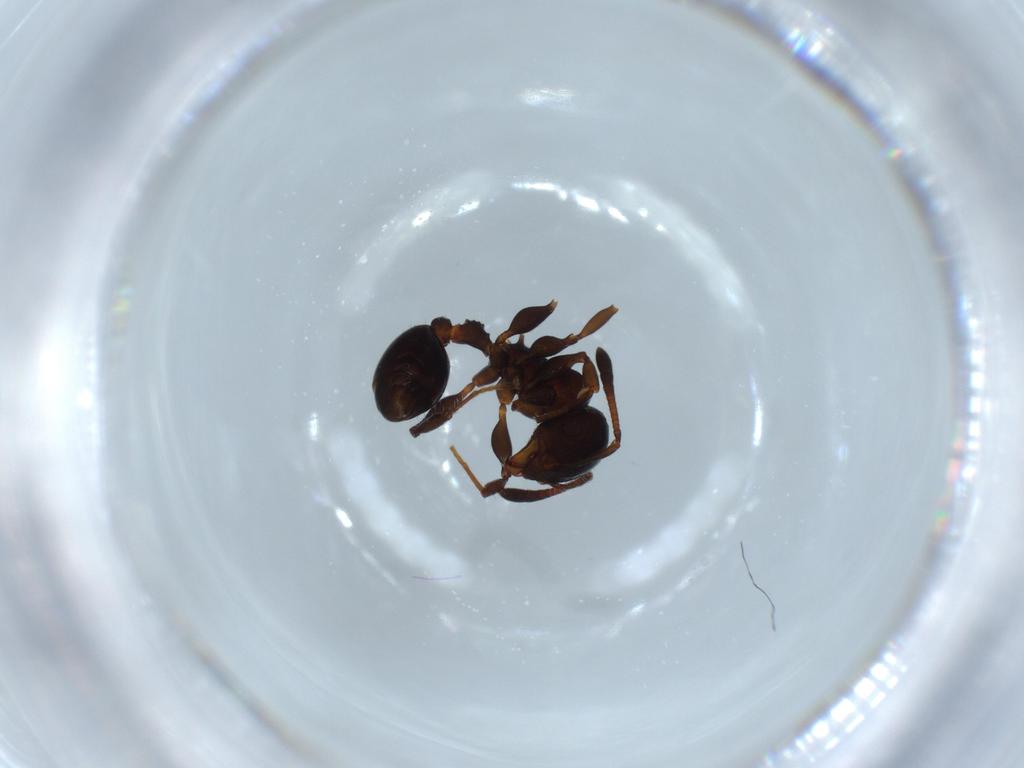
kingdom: Animalia
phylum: Arthropoda
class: Insecta
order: Hymenoptera
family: Formicidae
